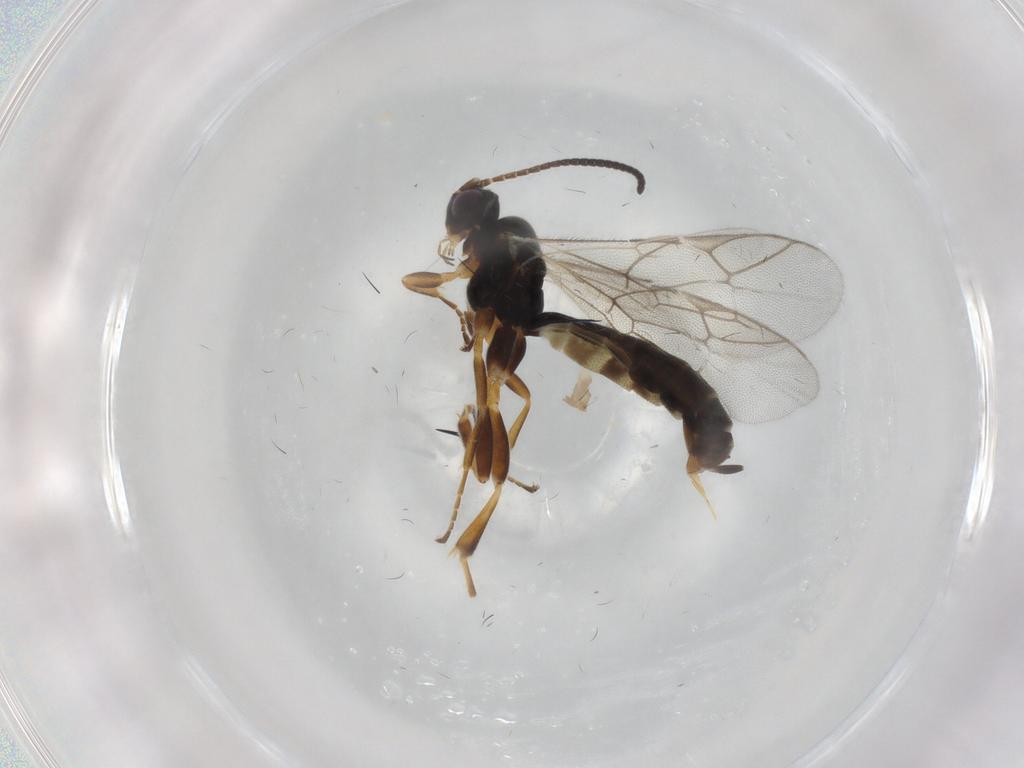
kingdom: Animalia
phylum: Arthropoda
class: Insecta
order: Hymenoptera
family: Ichneumonidae
